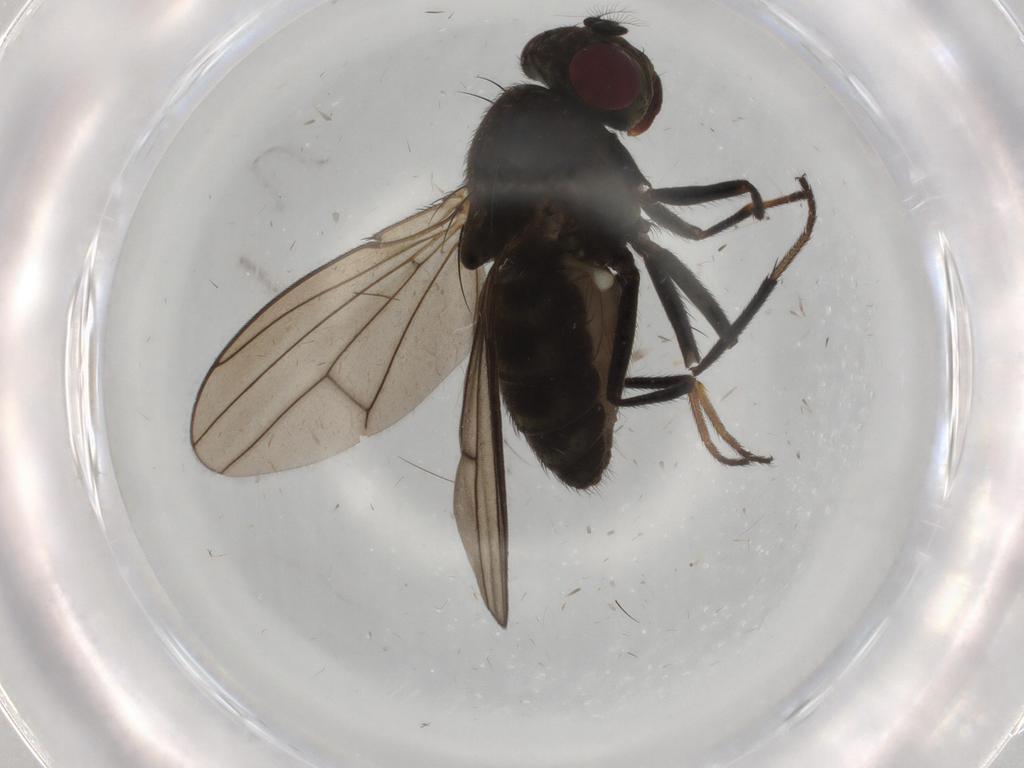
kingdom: Animalia
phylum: Arthropoda
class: Insecta
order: Diptera
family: Ephydridae
